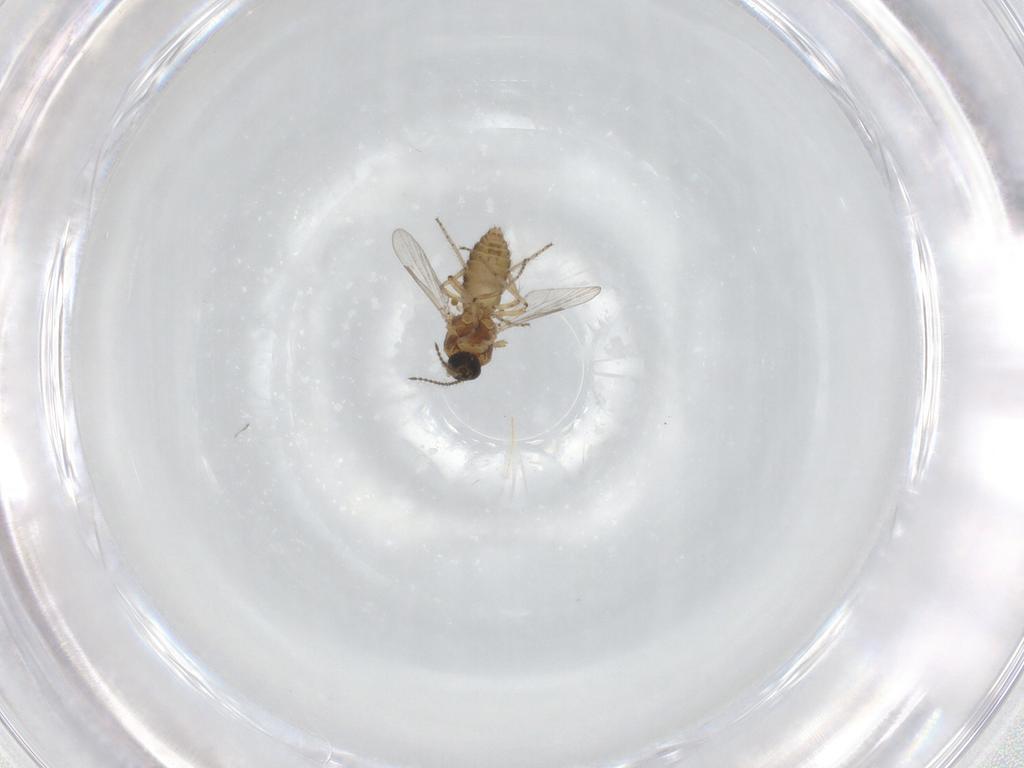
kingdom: Animalia
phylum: Arthropoda
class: Insecta
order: Diptera
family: Ceratopogonidae
